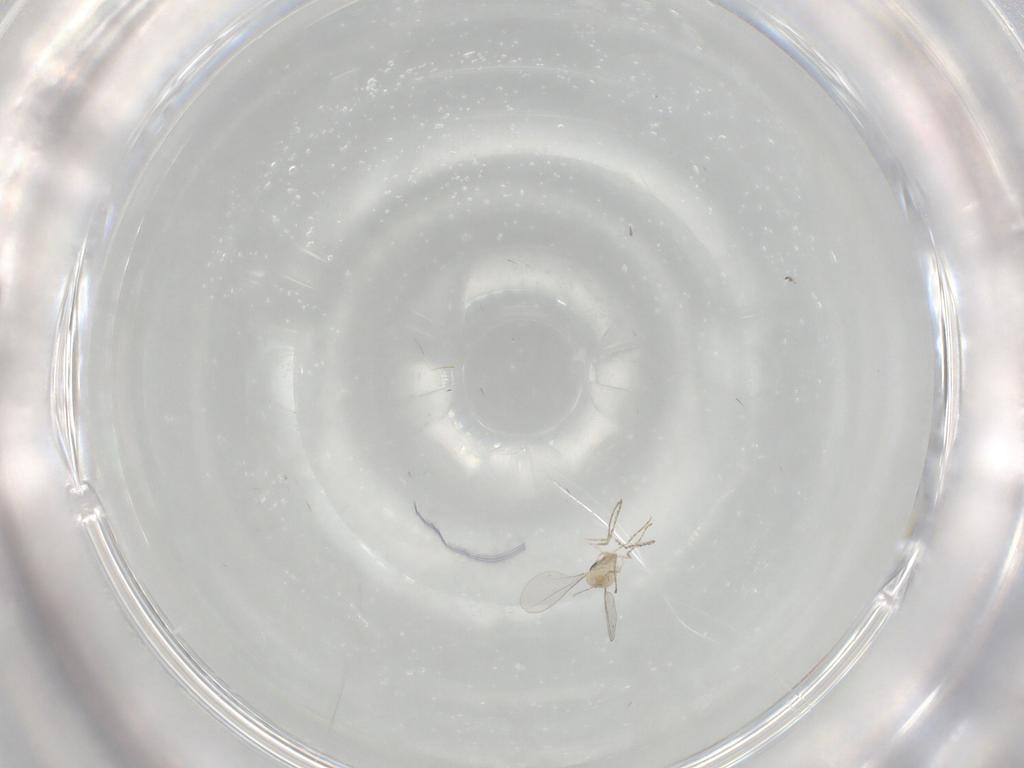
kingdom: Animalia
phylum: Arthropoda
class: Insecta
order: Diptera
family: Cecidomyiidae
